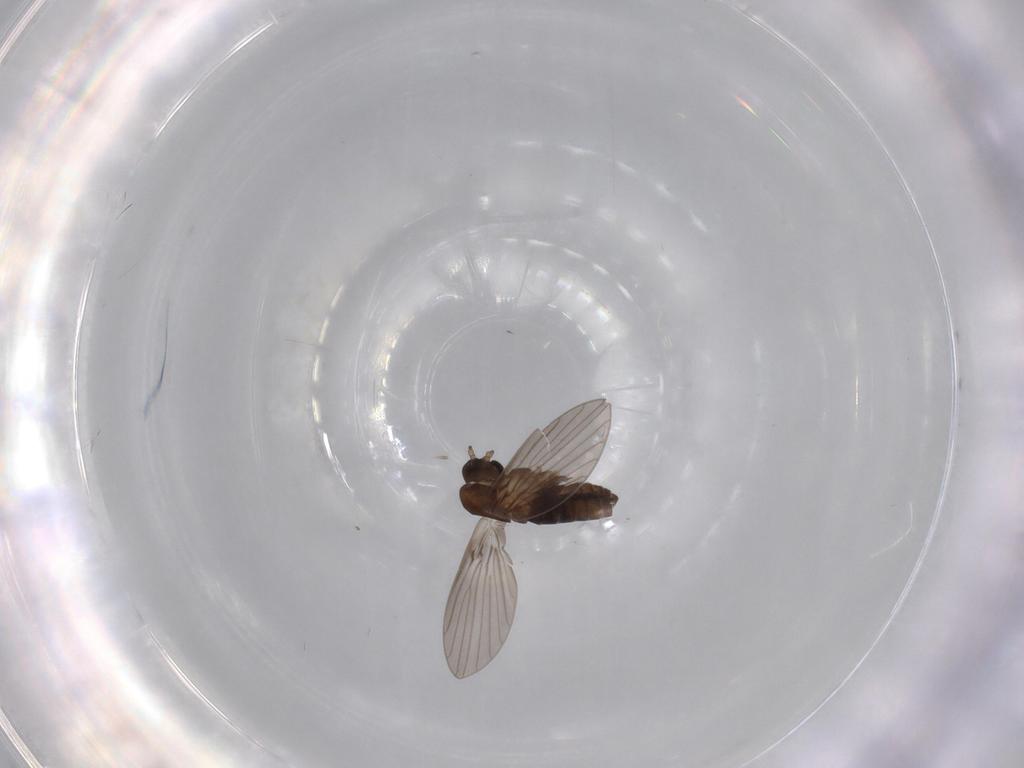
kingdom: Animalia
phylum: Arthropoda
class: Insecta
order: Diptera
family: Psychodidae
